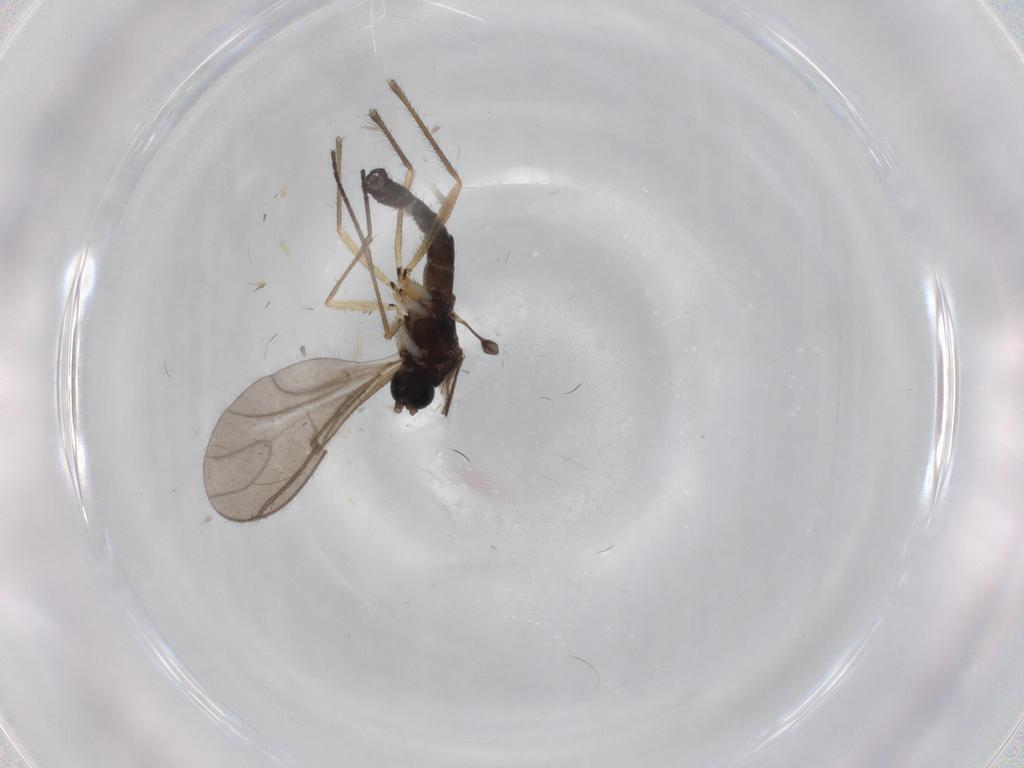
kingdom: Animalia
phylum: Arthropoda
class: Insecta
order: Diptera
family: Sciaridae
